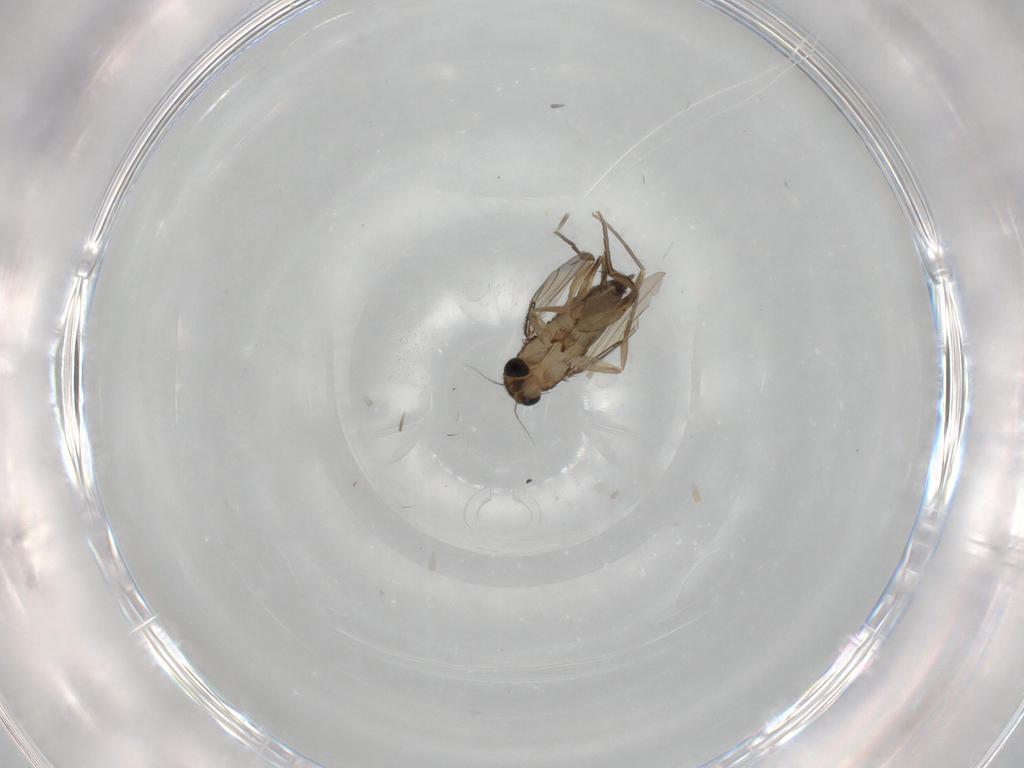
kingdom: Animalia
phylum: Arthropoda
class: Insecta
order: Diptera
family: Phoridae
